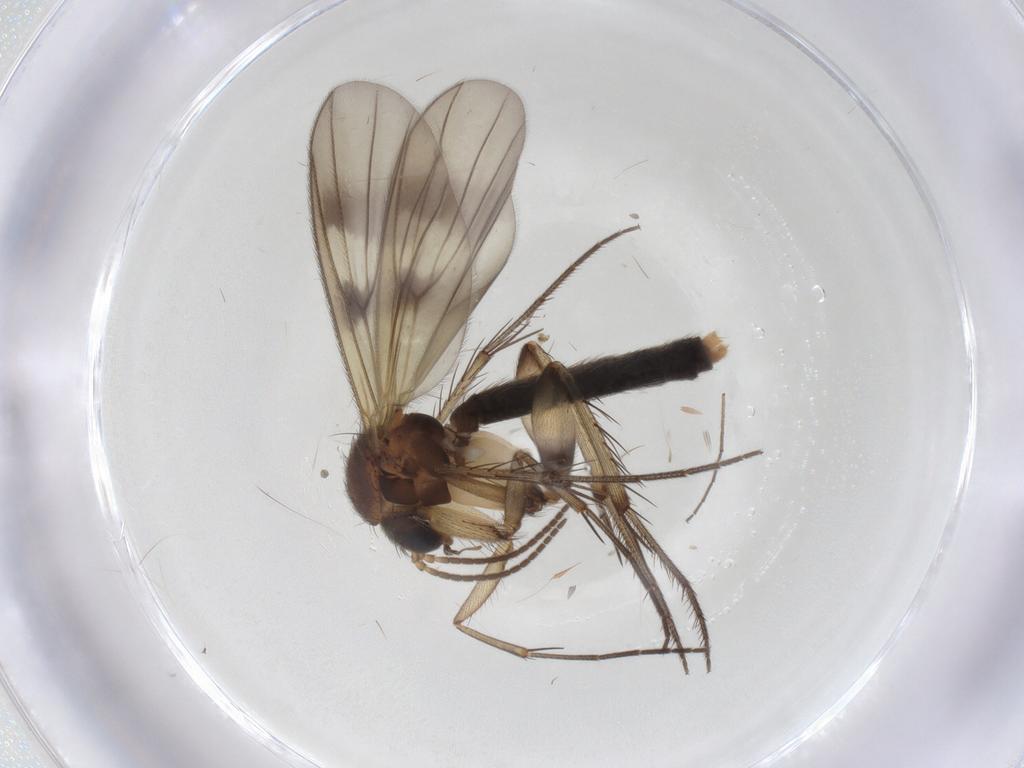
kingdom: Animalia
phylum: Arthropoda
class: Insecta
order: Diptera
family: Mycetophilidae
